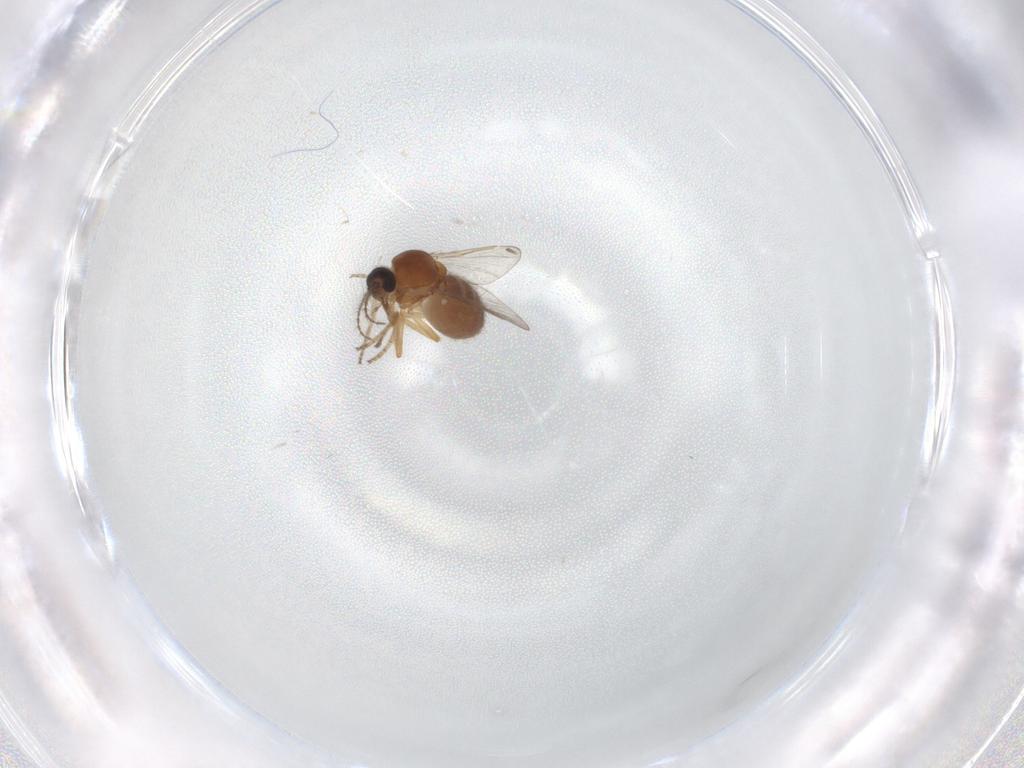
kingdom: Animalia
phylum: Arthropoda
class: Insecta
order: Diptera
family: Ceratopogonidae
